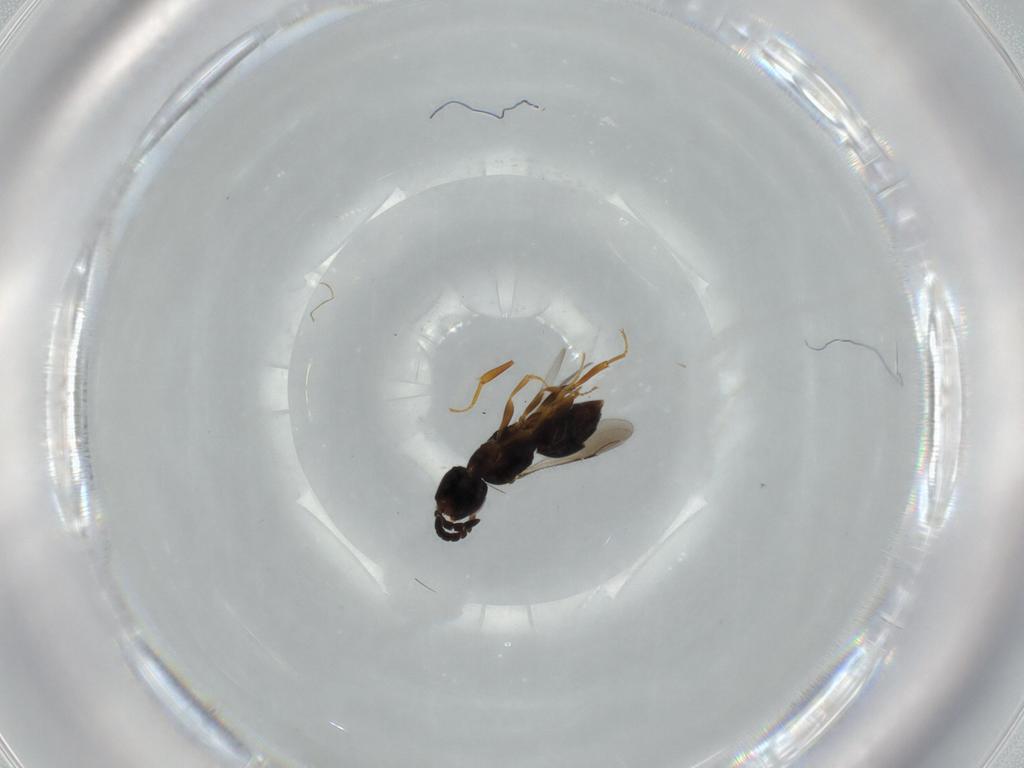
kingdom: Animalia
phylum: Arthropoda
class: Insecta
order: Hymenoptera
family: Formicidae
